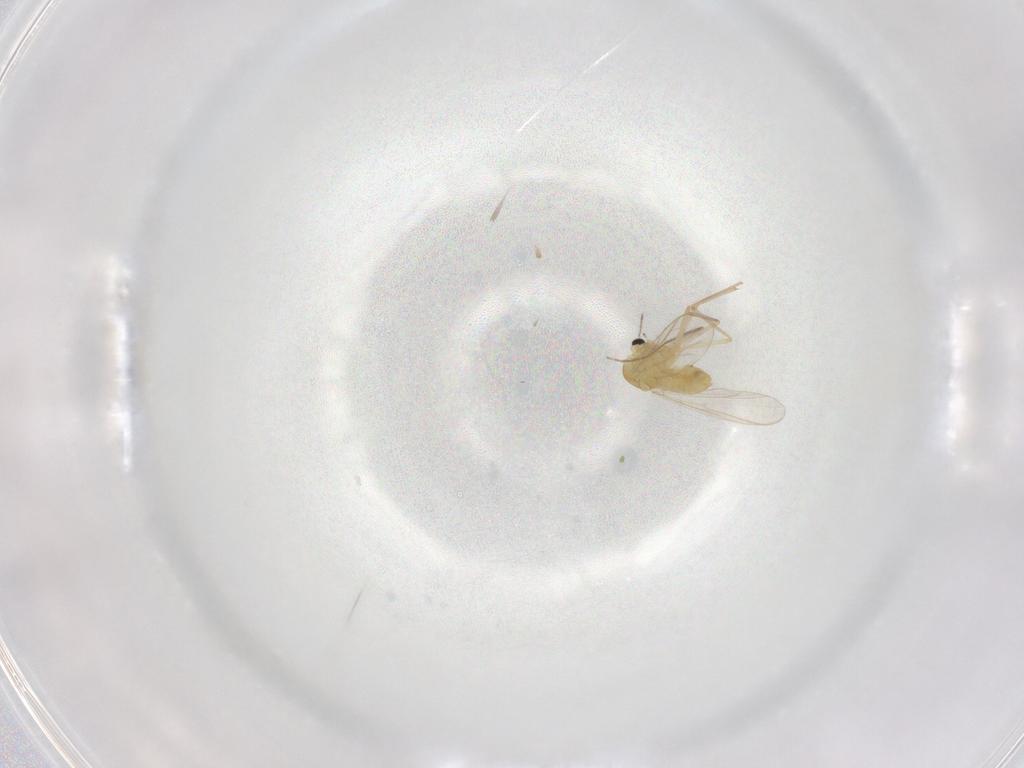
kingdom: Animalia
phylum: Arthropoda
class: Insecta
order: Diptera
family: Chironomidae
